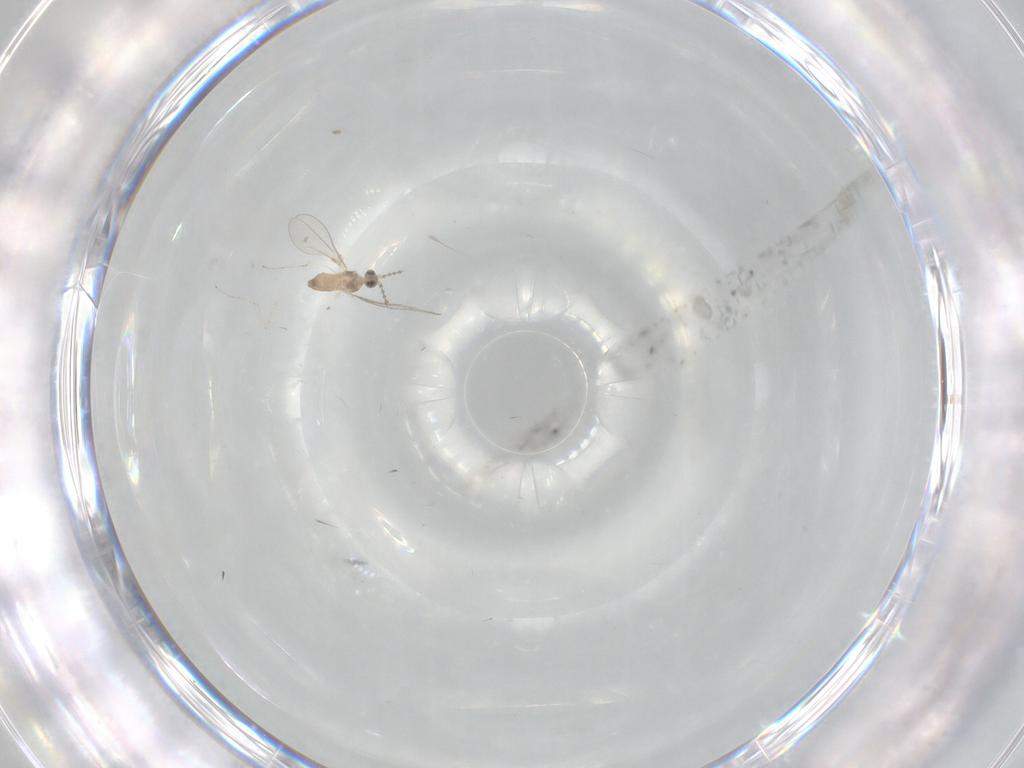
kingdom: Animalia
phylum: Arthropoda
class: Insecta
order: Diptera
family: Cecidomyiidae
